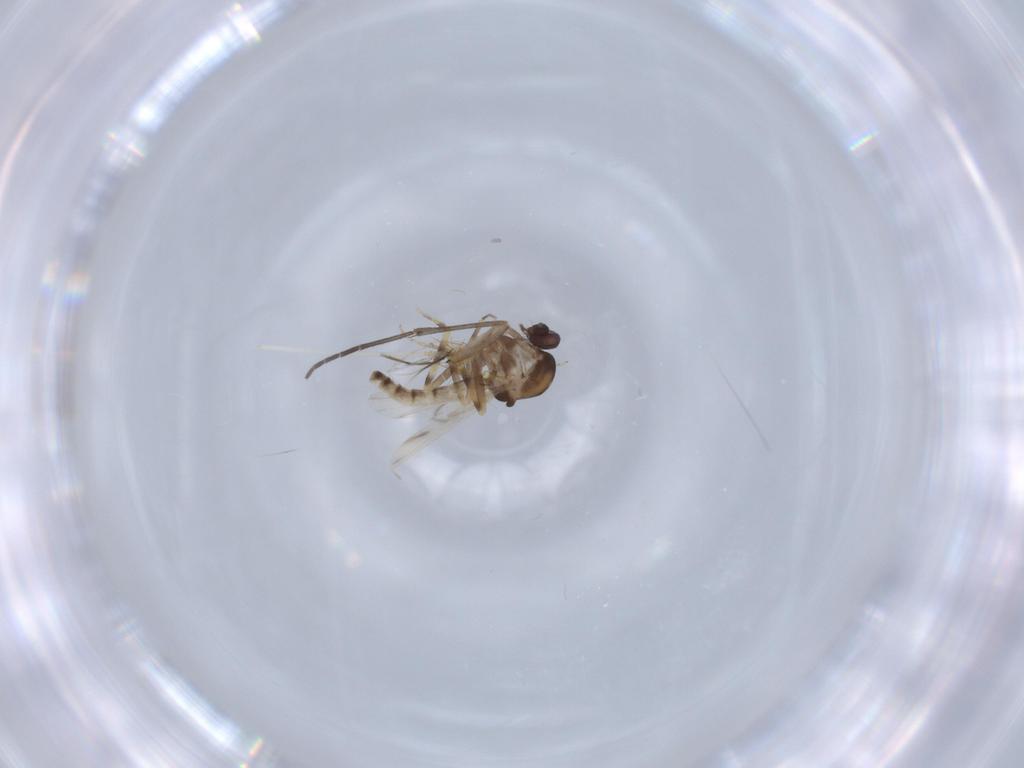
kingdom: Animalia
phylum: Arthropoda
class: Insecta
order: Diptera
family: Ceratopogonidae
